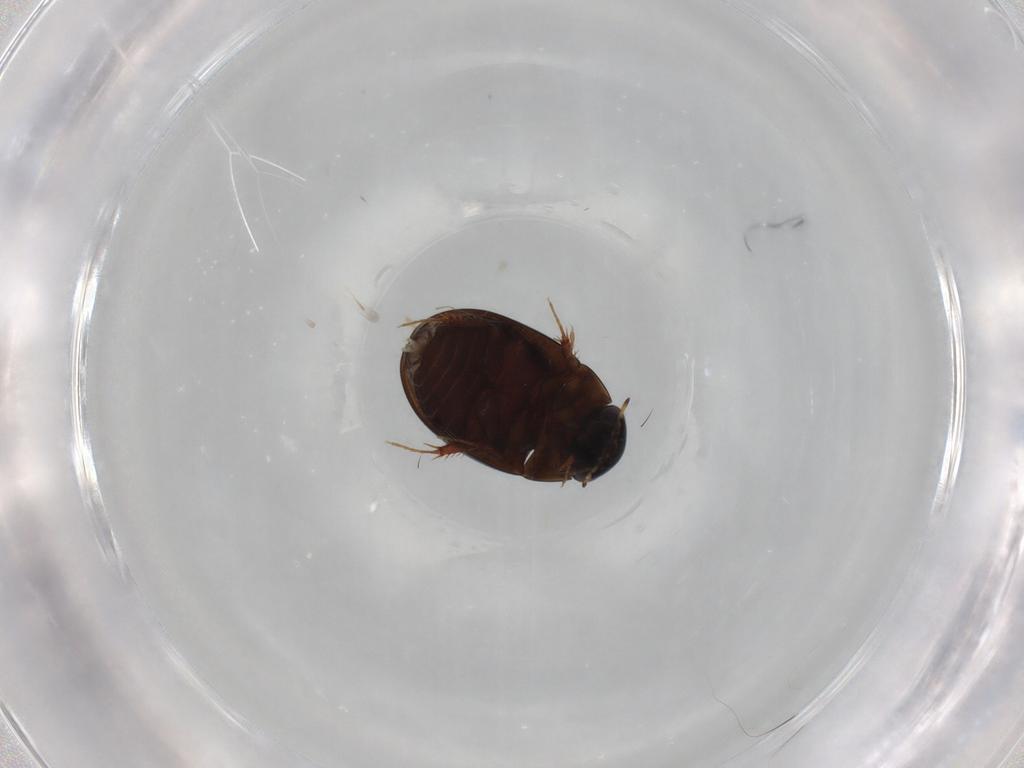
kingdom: Animalia
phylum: Arthropoda
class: Insecta
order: Coleoptera
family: Hydrophilidae
